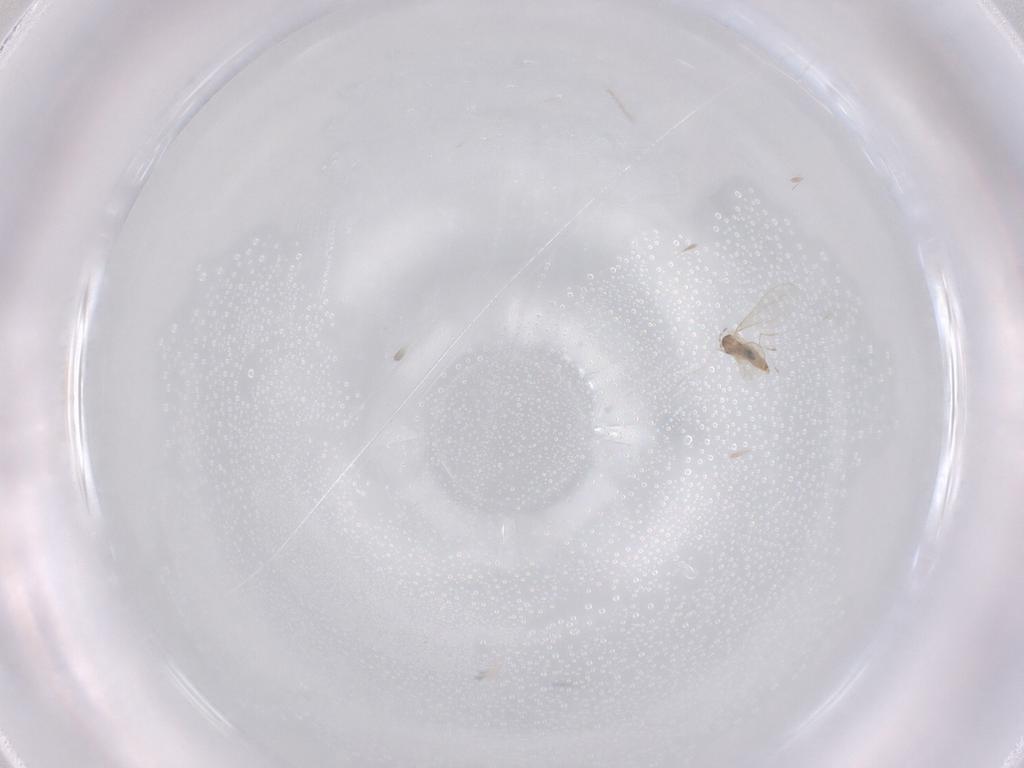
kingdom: Animalia
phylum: Arthropoda
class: Insecta
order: Diptera
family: Cecidomyiidae
